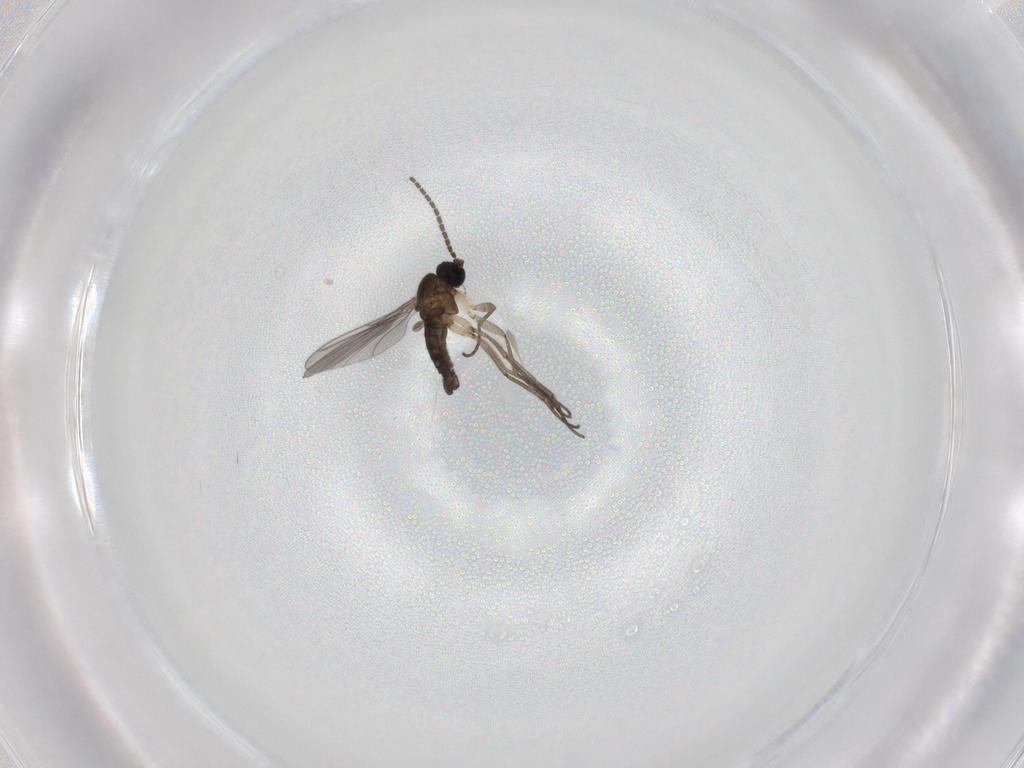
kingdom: Animalia
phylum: Arthropoda
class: Insecta
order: Diptera
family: Sciaridae
